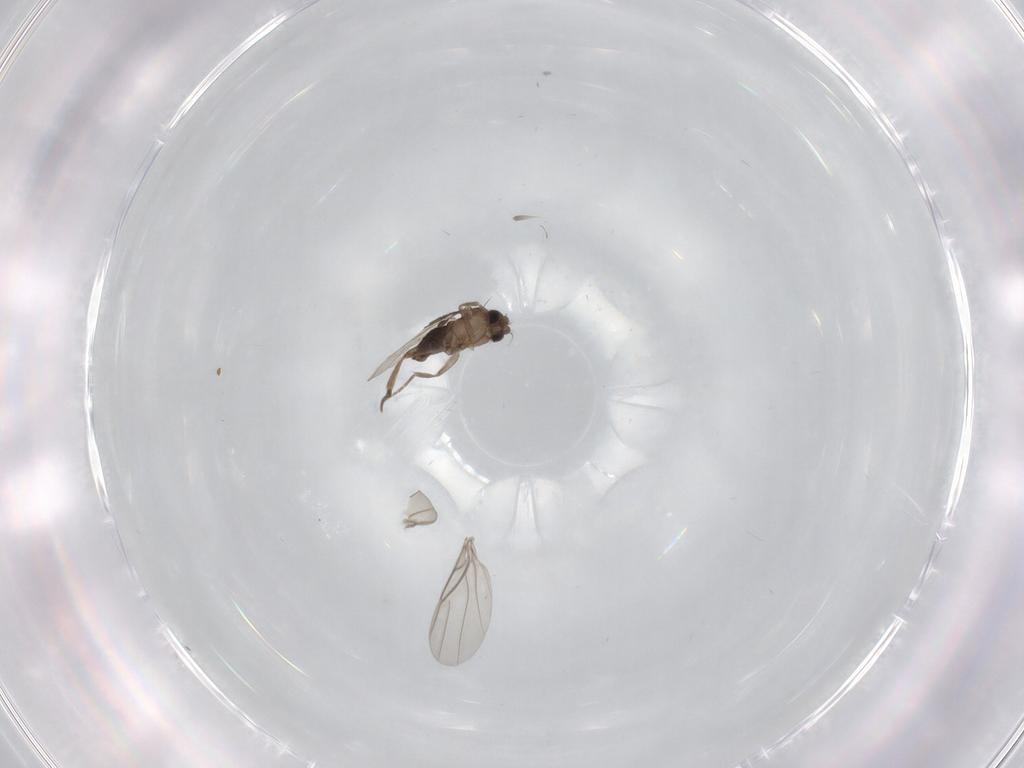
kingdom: Animalia
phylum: Arthropoda
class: Insecta
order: Diptera
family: Phoridae
